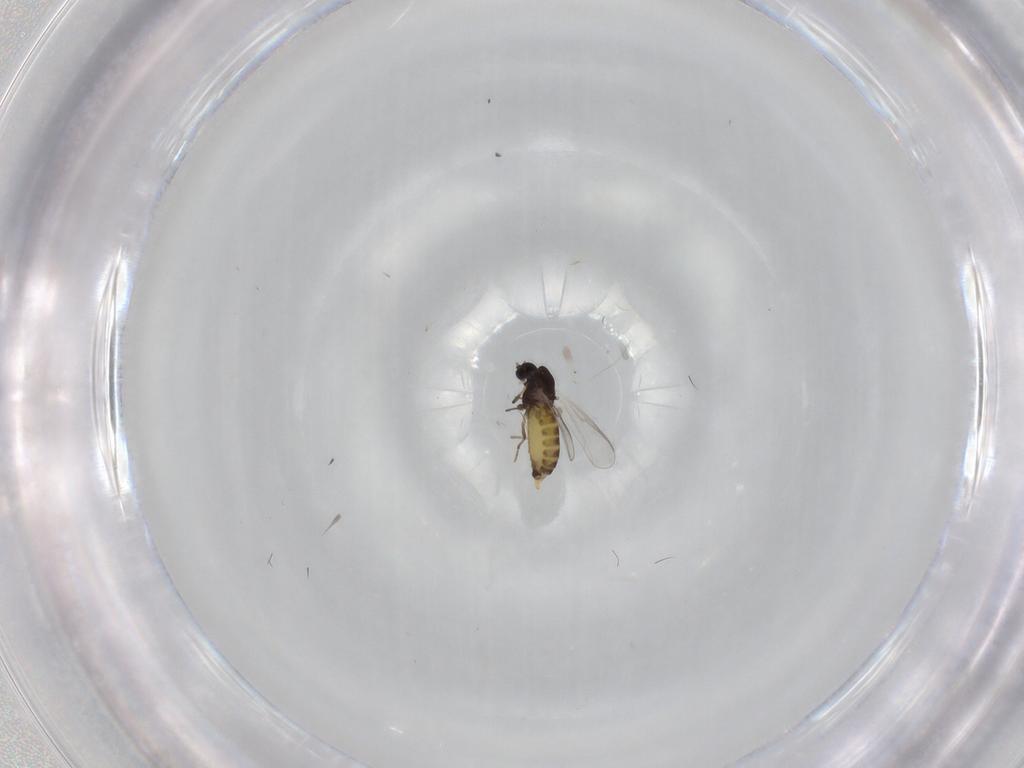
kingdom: Animalia
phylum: Arthropoda
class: Insecta
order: Diptera
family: Chironomidae
